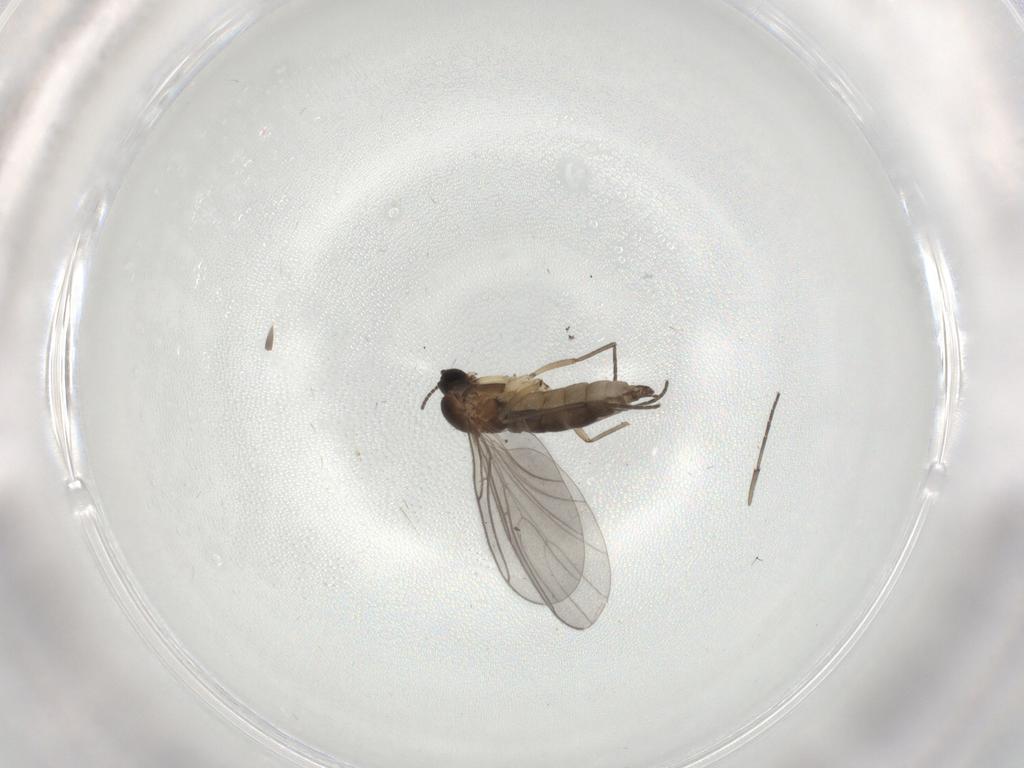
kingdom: Animalia
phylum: Arthropoda
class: Insecta
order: Diptera
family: Sciaridae
